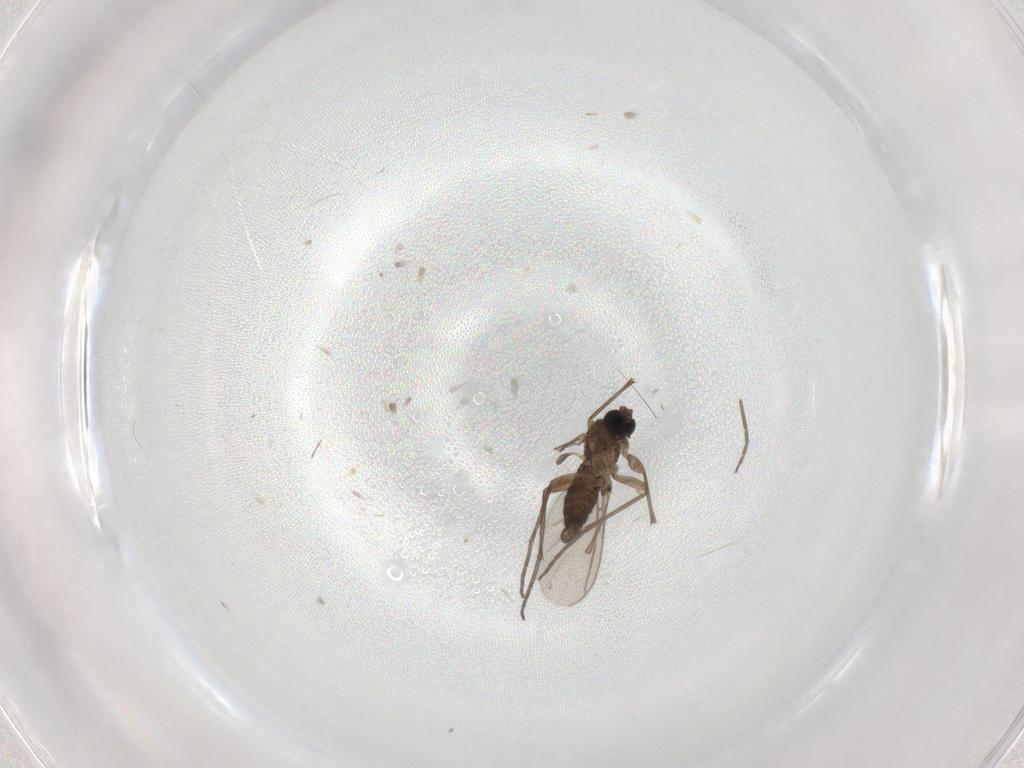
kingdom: Animalia
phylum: Arthropoda
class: Insecta
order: Diptera
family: Sciaridae
